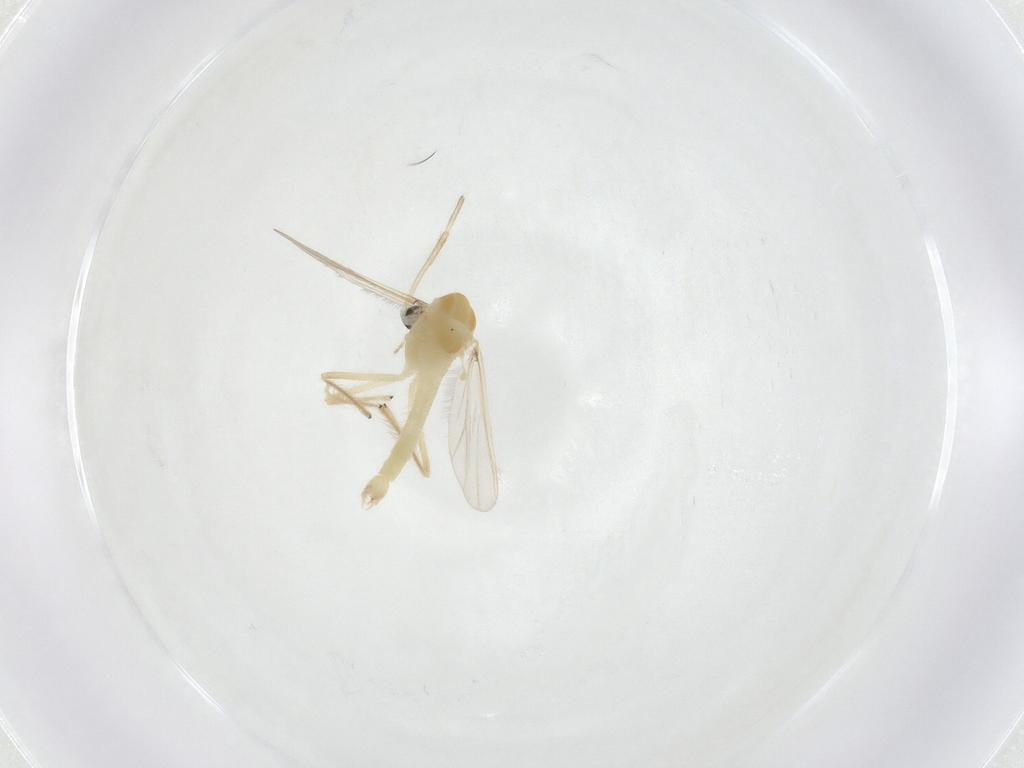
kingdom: Animalia
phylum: Arthropoda
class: Insecta
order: Diptera
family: Chironomidae
